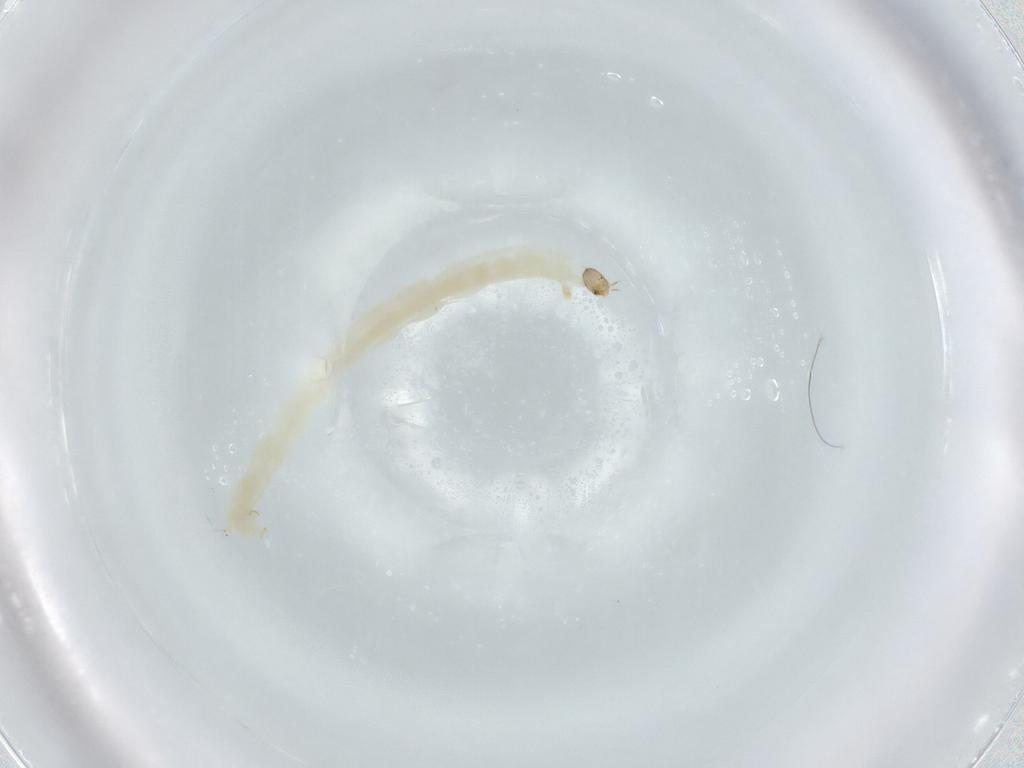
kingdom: Animalia
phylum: Arthropoda
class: Insecta
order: Diptera
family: Chironomidae
